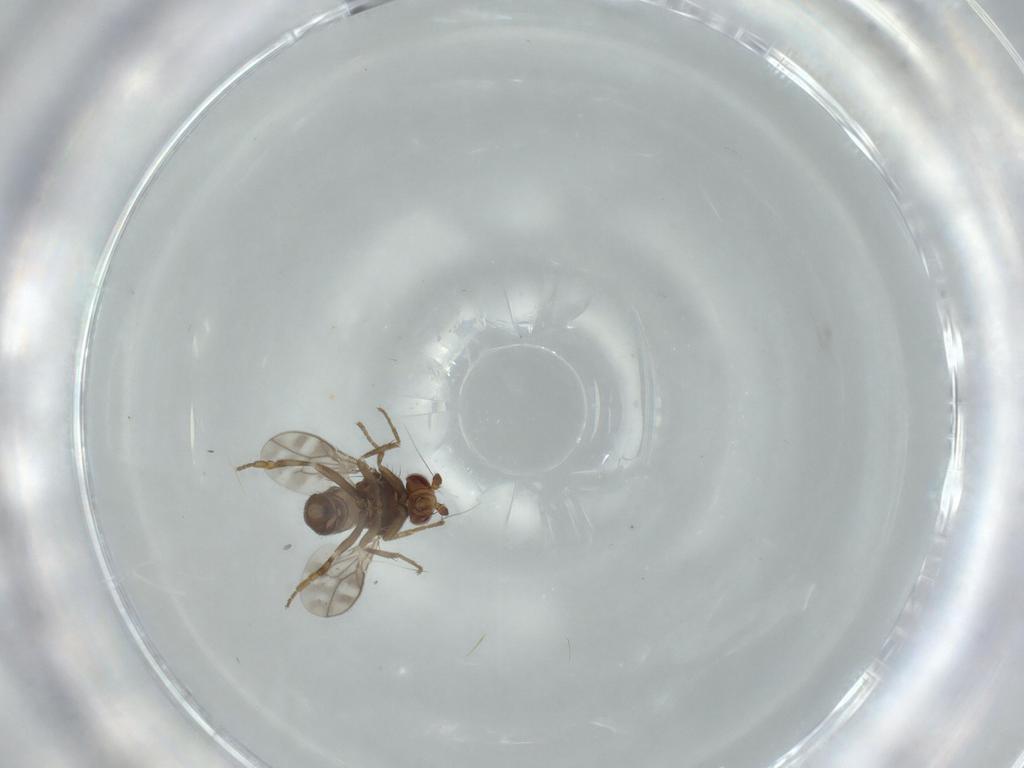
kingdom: Animalia
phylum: Arthropoda
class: Insecta
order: Diptera
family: Sphaeroceridae
